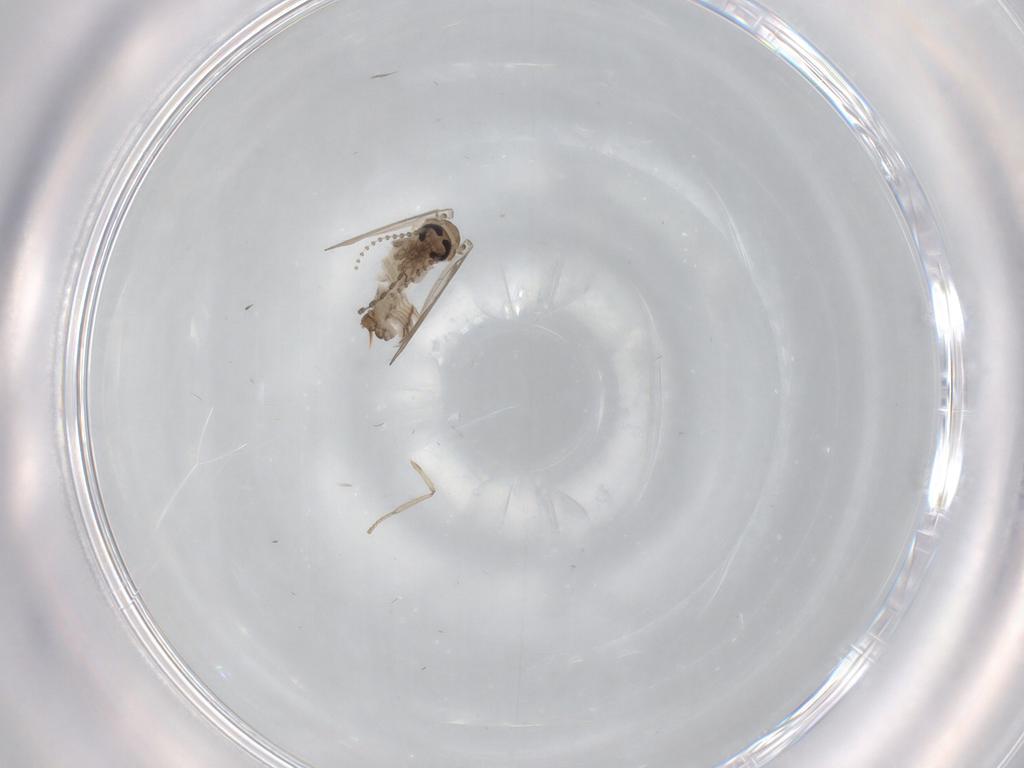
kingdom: Animalia
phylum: Arthropoda
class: Insecta
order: Diptera
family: Psychodidae
